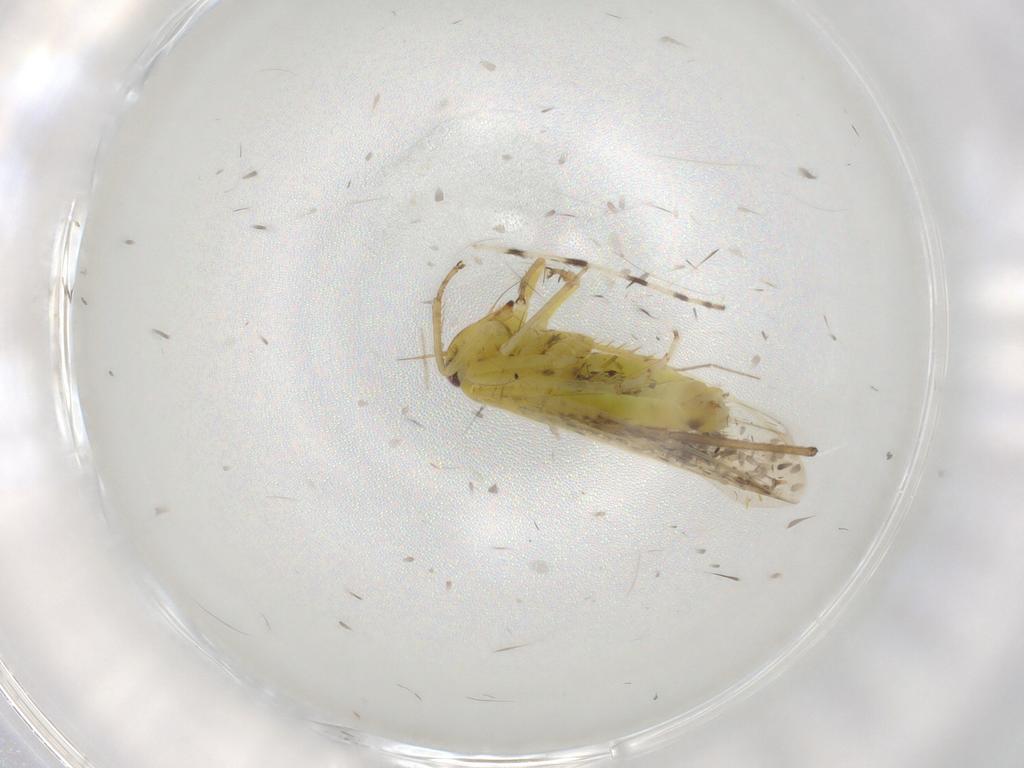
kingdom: Animalia
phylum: Arthropoda
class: Insecta
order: Hemiptera
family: Cicadellidae
